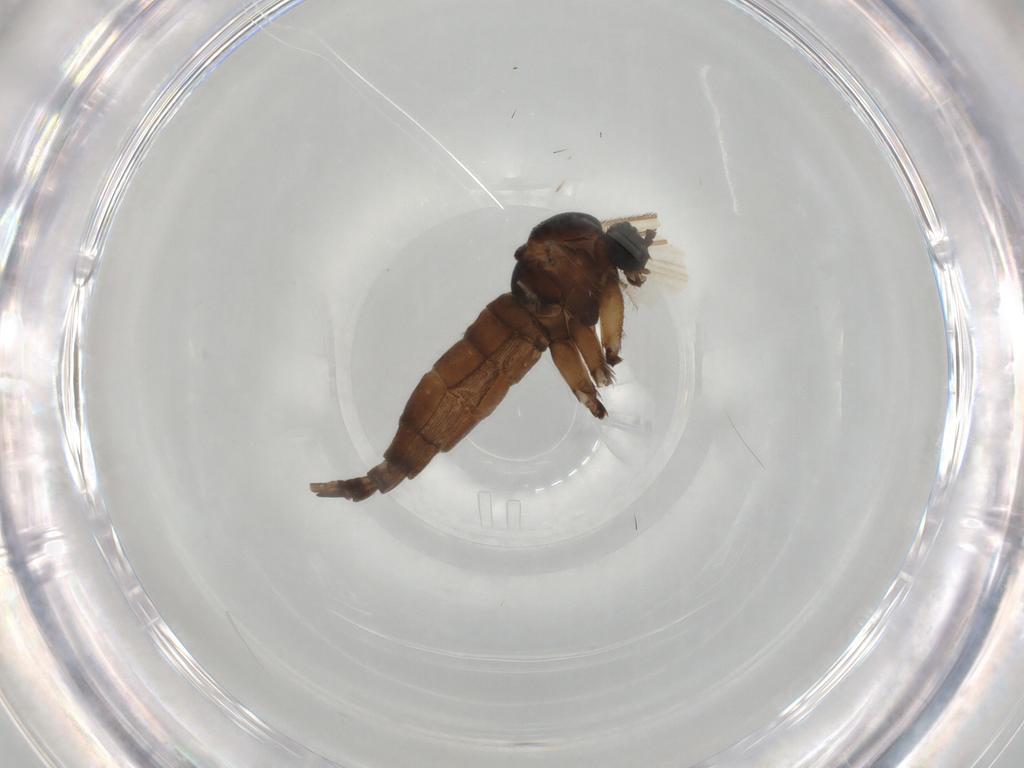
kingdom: Animalia
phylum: Arthropoda
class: Insecta
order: Diptera
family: Sciaridae
